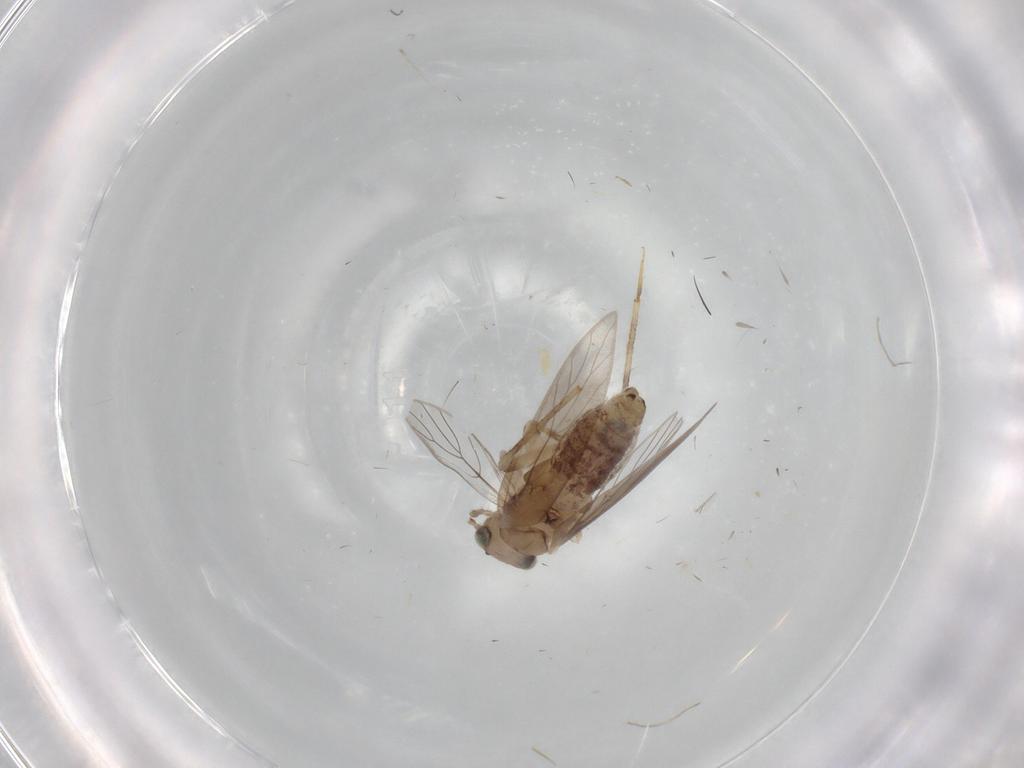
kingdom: Animalia
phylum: Arthropoda
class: Insecta
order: Psocodea
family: Lepidopsocidae
